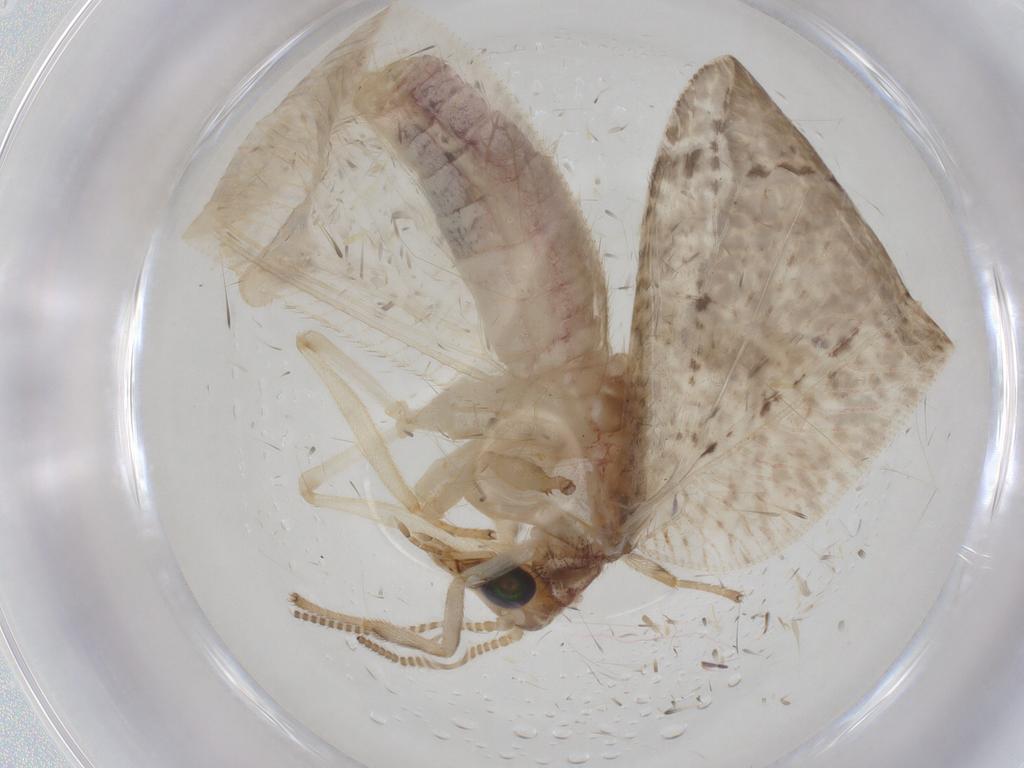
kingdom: Animalia
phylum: Arthropoda
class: Insecta
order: Neuroptera
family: Hemerobiidae
